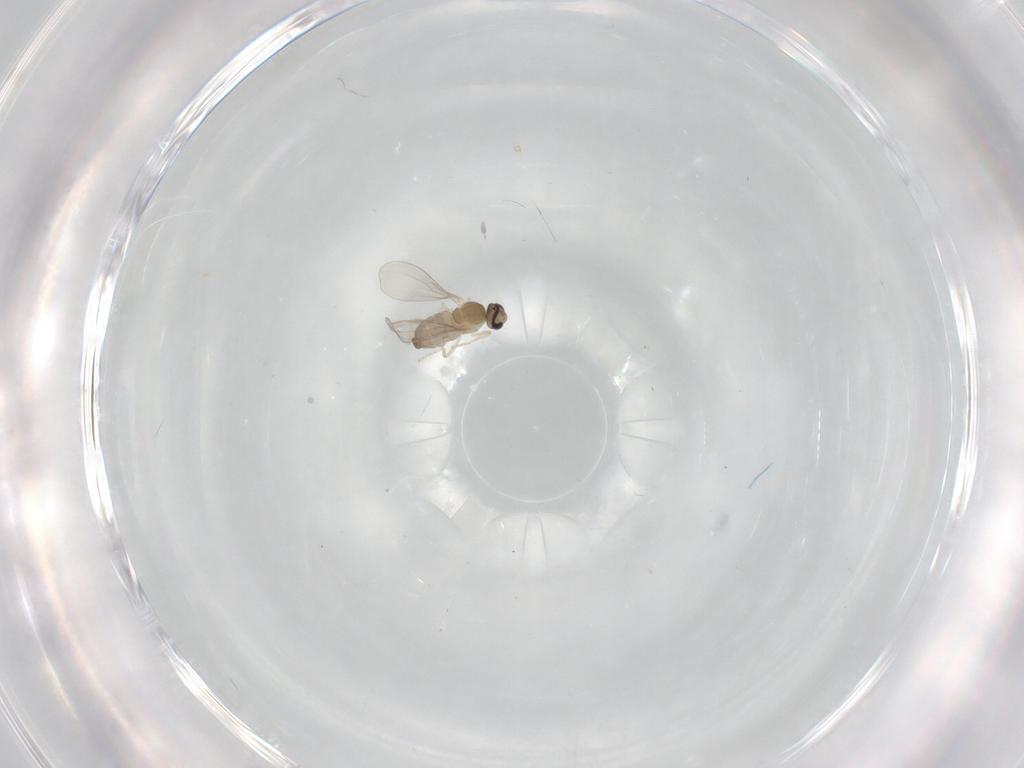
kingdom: Animalia
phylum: Arthropoda
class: Insecta
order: Diptera
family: Cecidomyiidae
